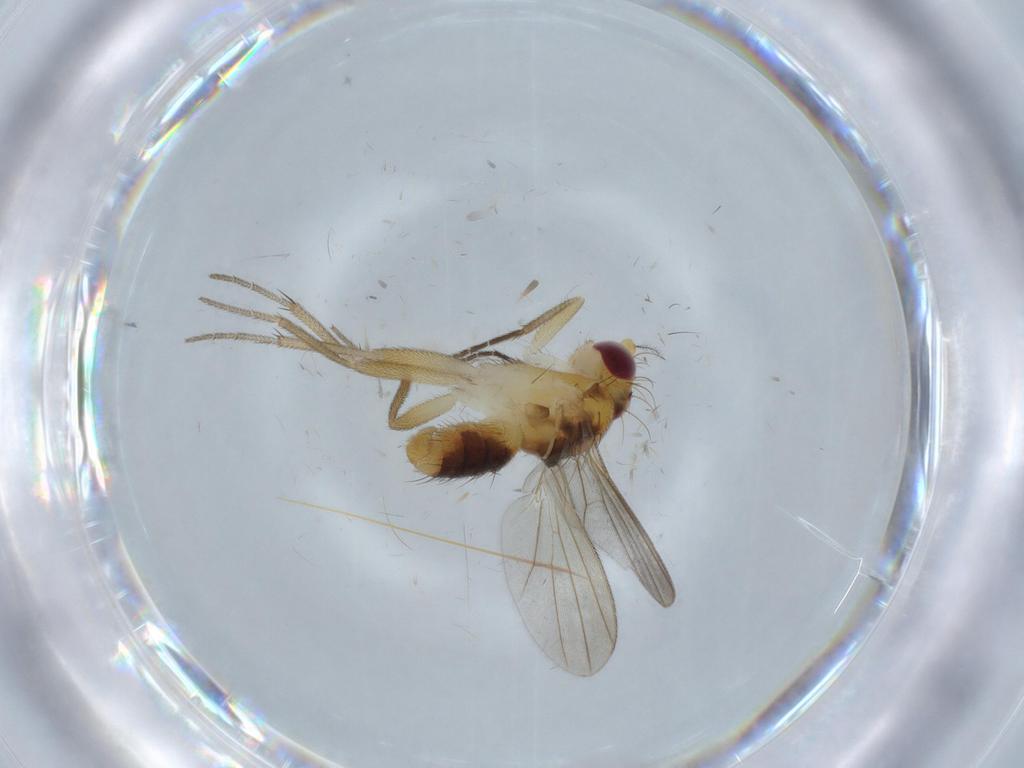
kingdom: Animalia
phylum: Arthropoda
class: Insecta
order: Diptera
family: Clusiidae
